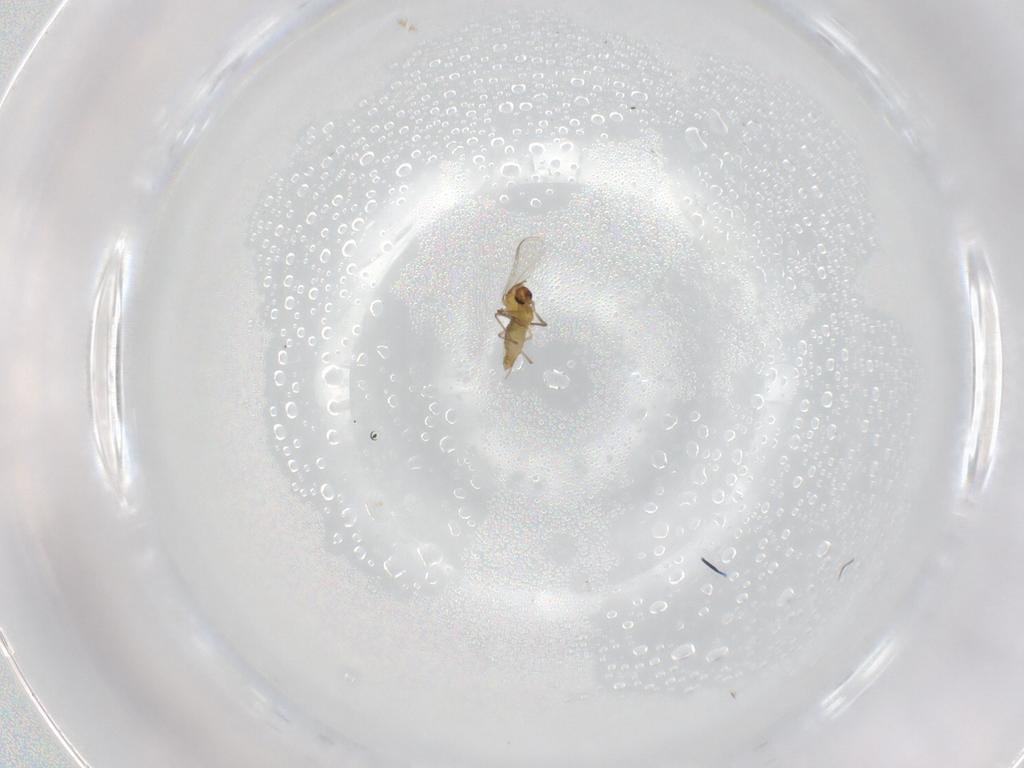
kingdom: Animalia
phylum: Arthropoda
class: Insecta
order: Diptera
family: Chironomidae
